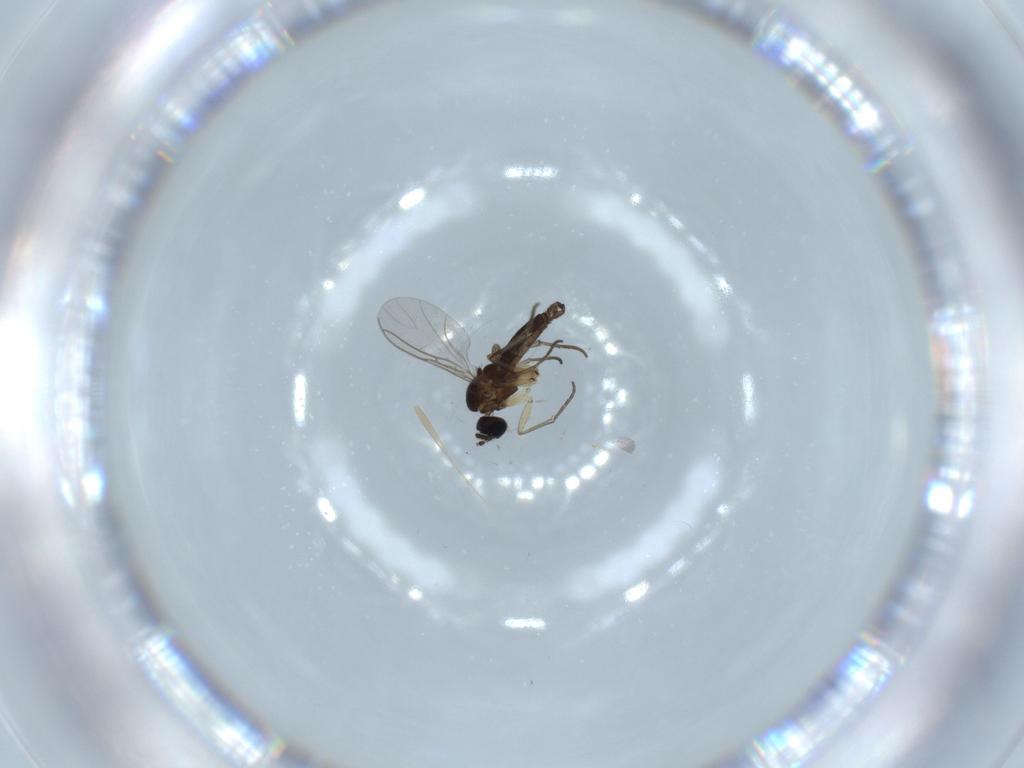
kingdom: Animalia
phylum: Arthropoda
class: Insecta
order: Diptera
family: Sciaridae
